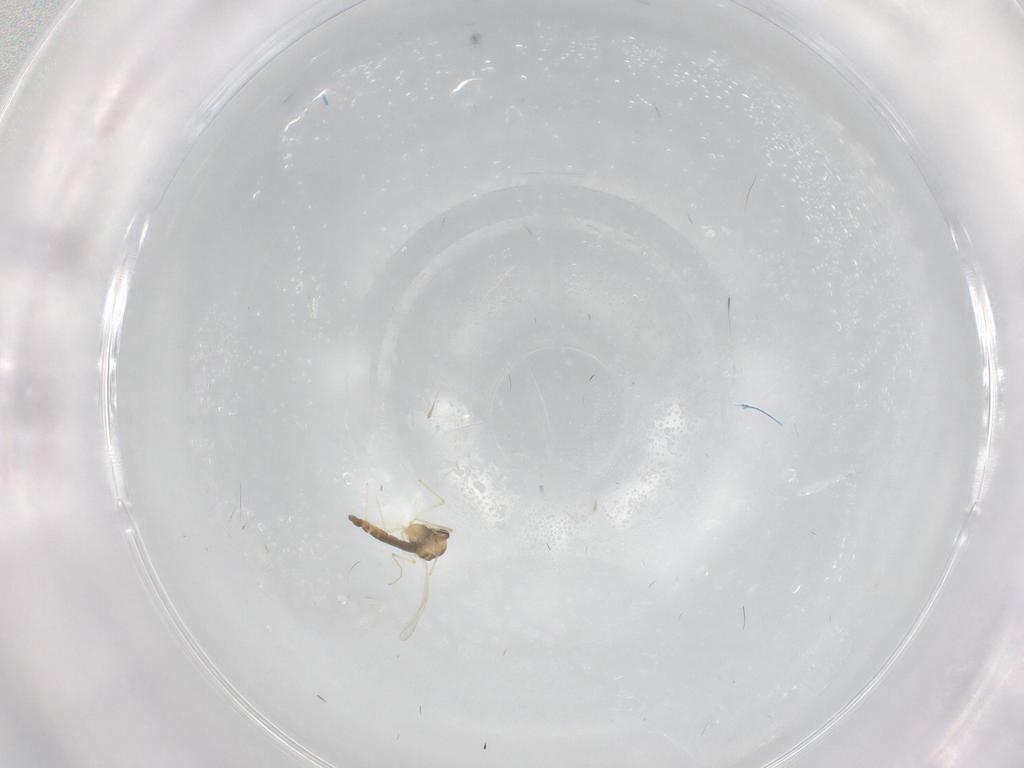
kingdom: Animalia
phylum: Arthropoda
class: Insecta
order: Diptera
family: Chironomidae
